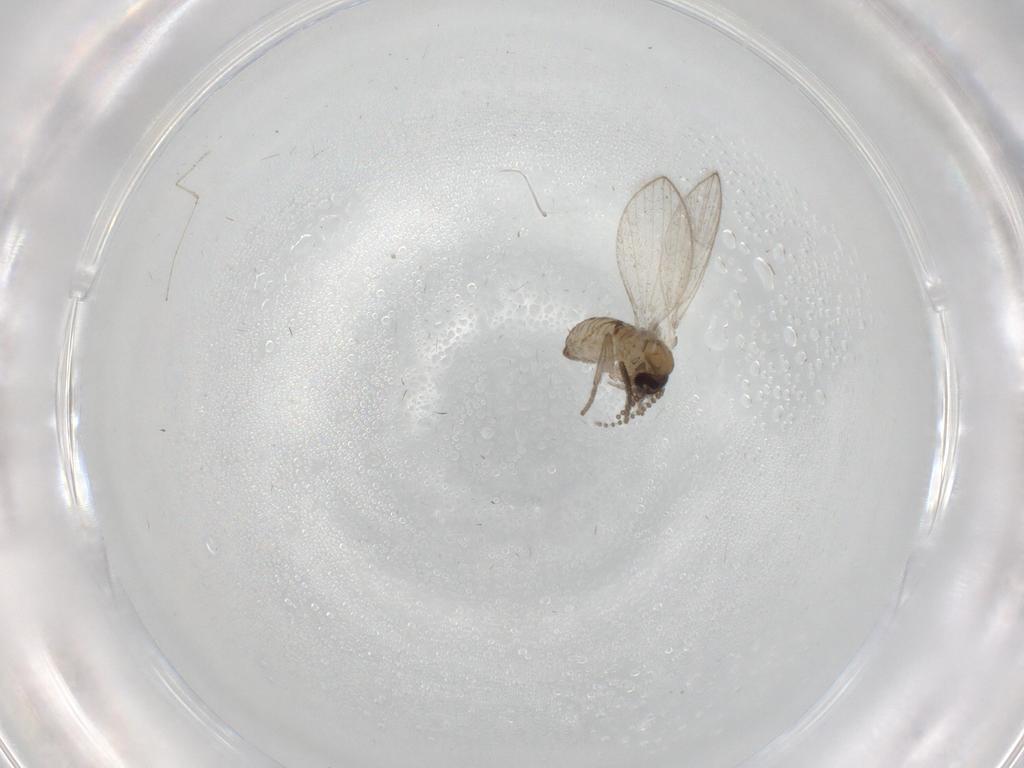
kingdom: Animalia
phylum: Arthropoda
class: Insecta
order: Diptera
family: Psychodidae
